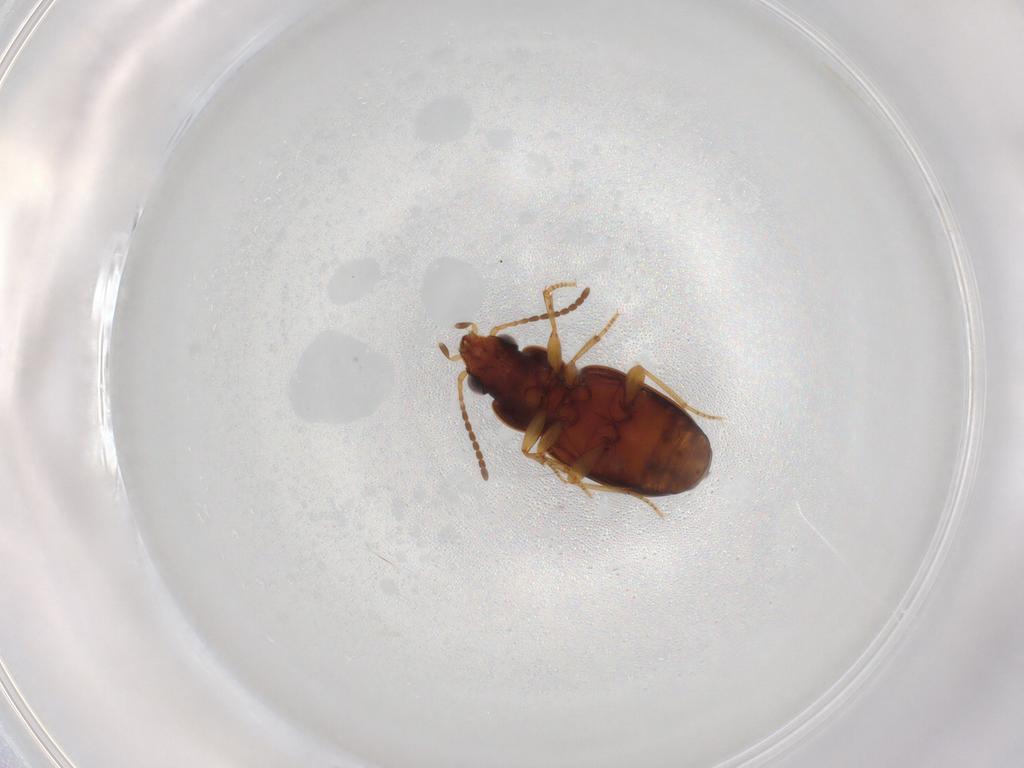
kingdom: Animalia
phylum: Arthropoda
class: Insecta
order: Coleoptera
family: Carabidae
